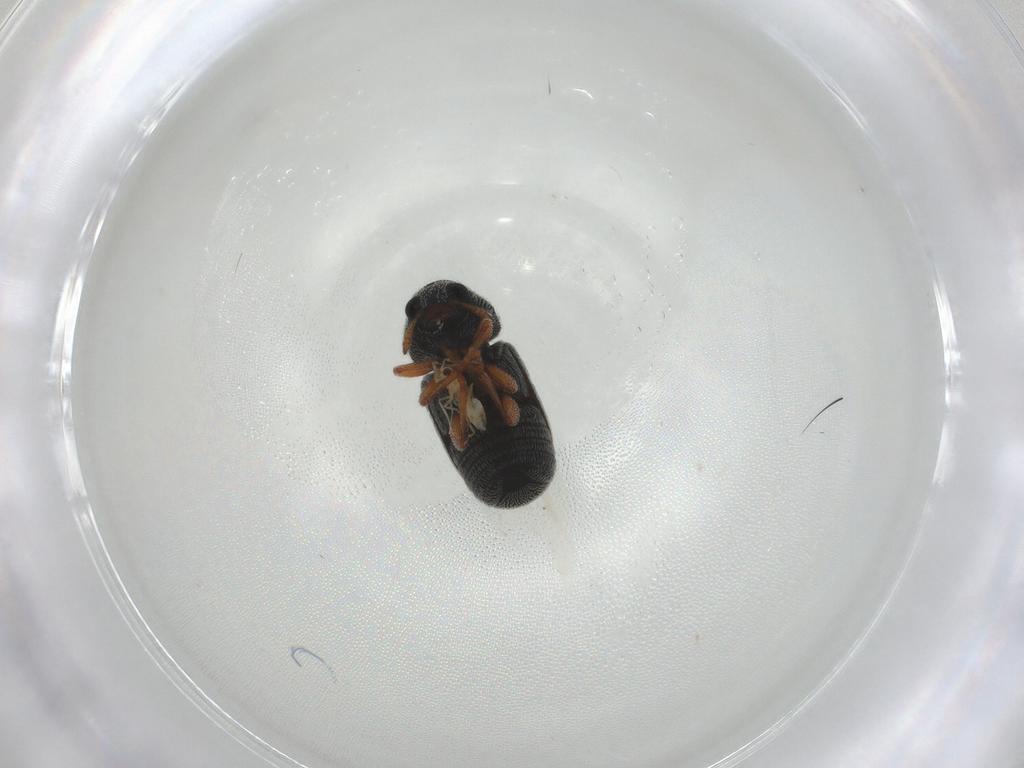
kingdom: Animalia
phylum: Arthropoda
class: Insecta
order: Coleoptera
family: Anthribidae
